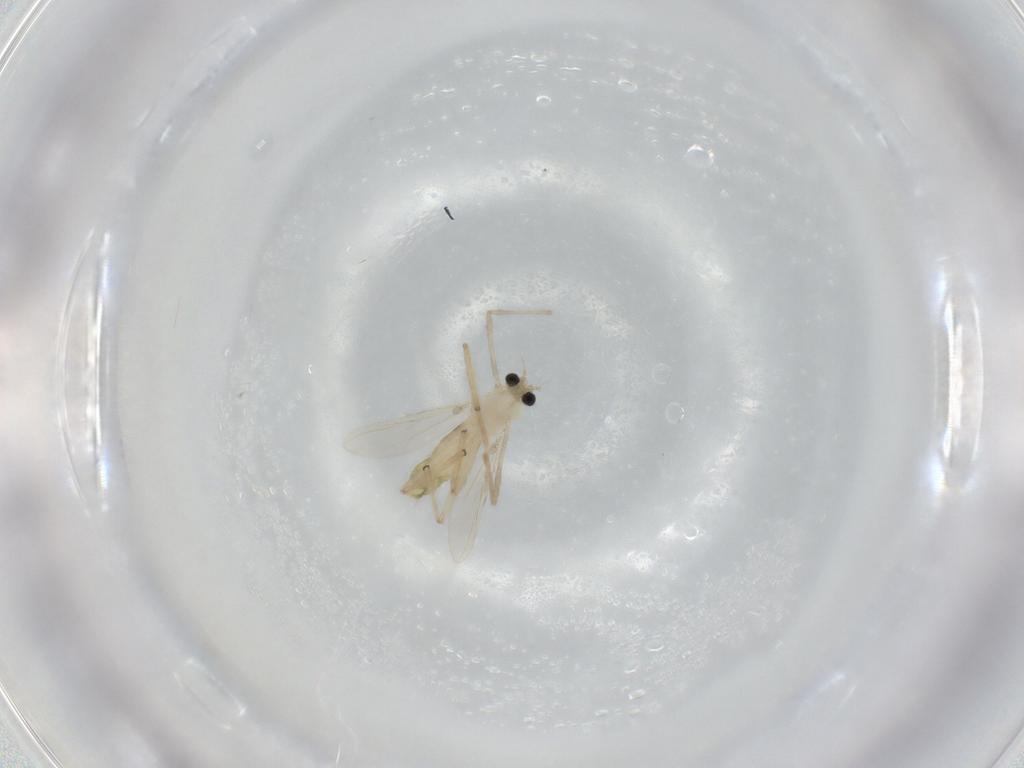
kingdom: Animalia
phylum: Arthropoda
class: Insecta
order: Diptera
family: Chironomidae
